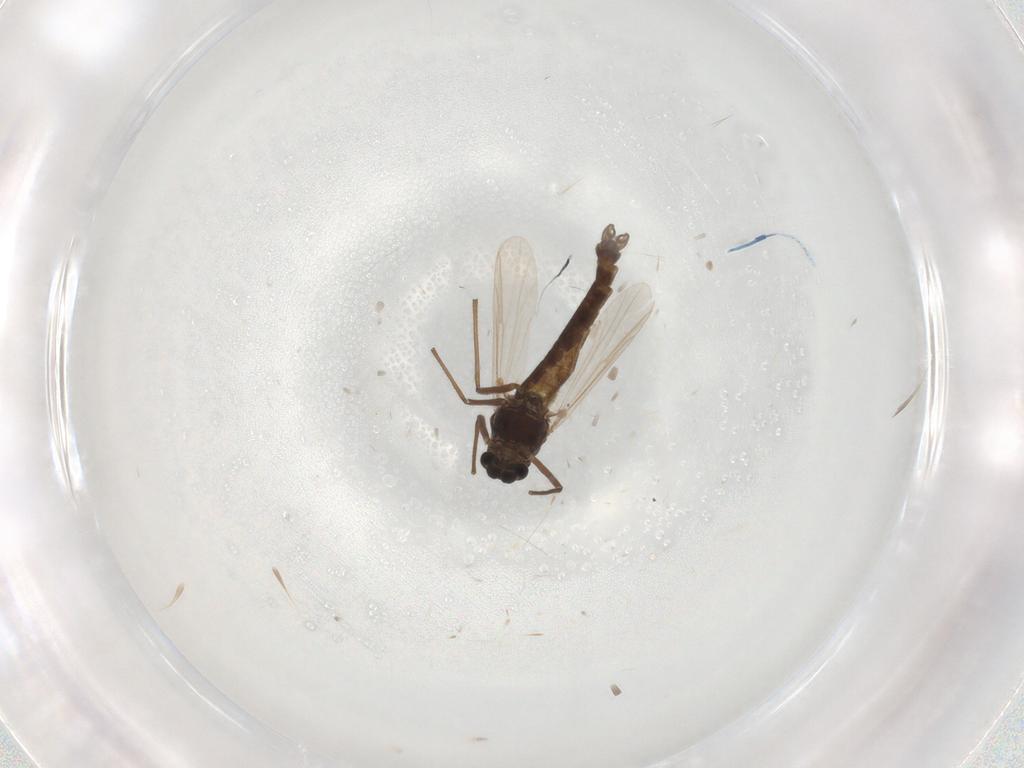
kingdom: Animalia
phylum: Arthropoda
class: Insecta
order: Diptera
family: Chironomidae
